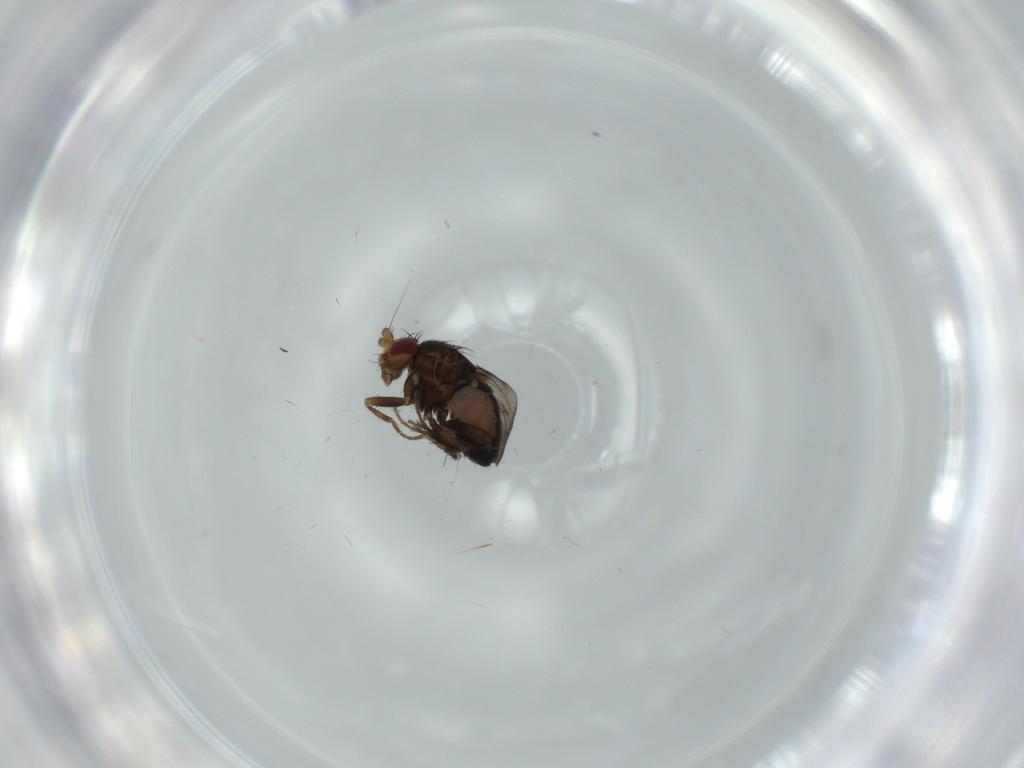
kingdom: Animalia
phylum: Arthropoda
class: Insecta
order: Diptera
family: Cecidomyiidae
